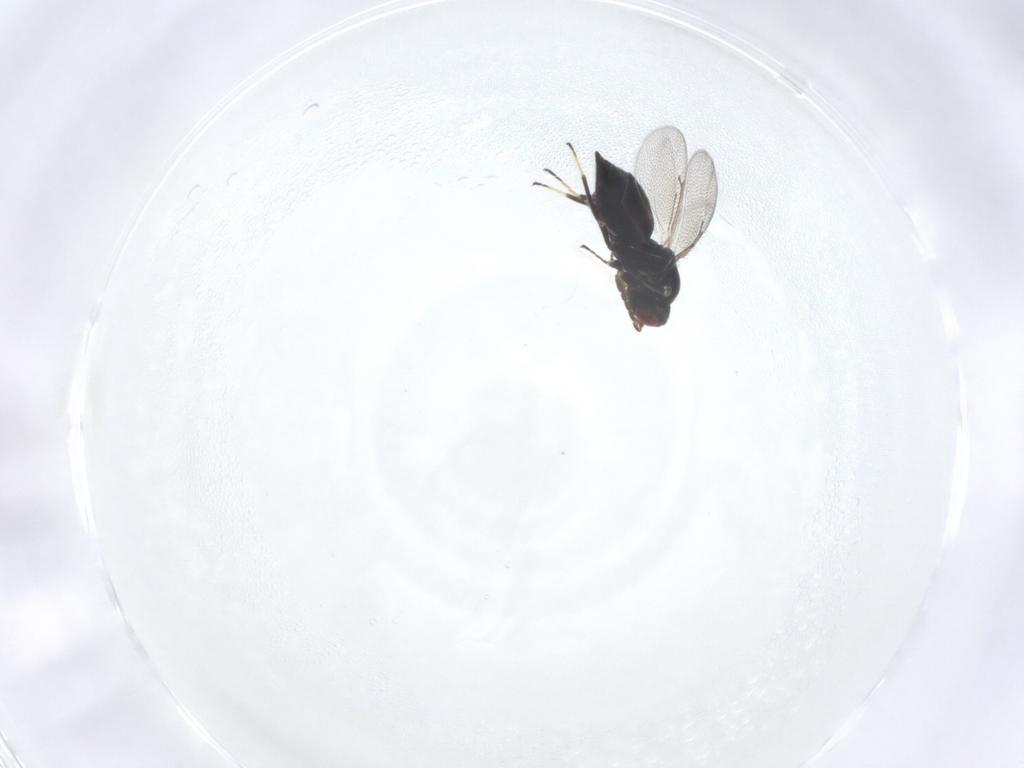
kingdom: Animalia
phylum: Arthropoda
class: Insecta
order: Hymenoptera
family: Eulophidae
